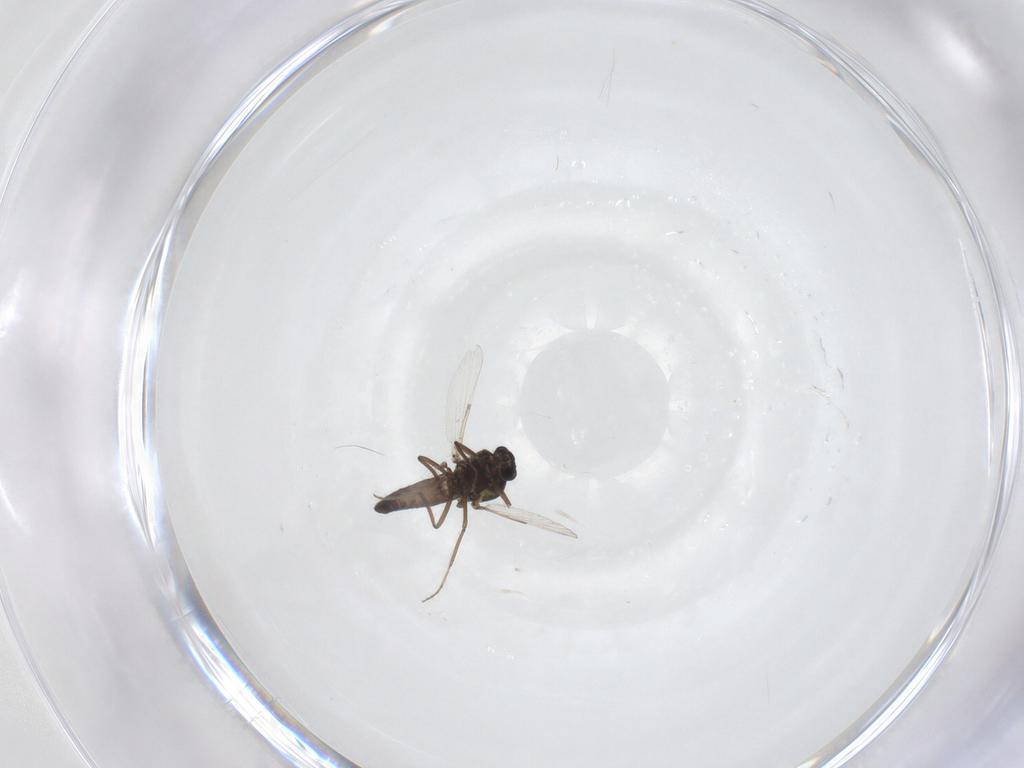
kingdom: Animalia
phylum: Arthropoda
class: Insecta
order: Diptera
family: Ceratopogonidae
